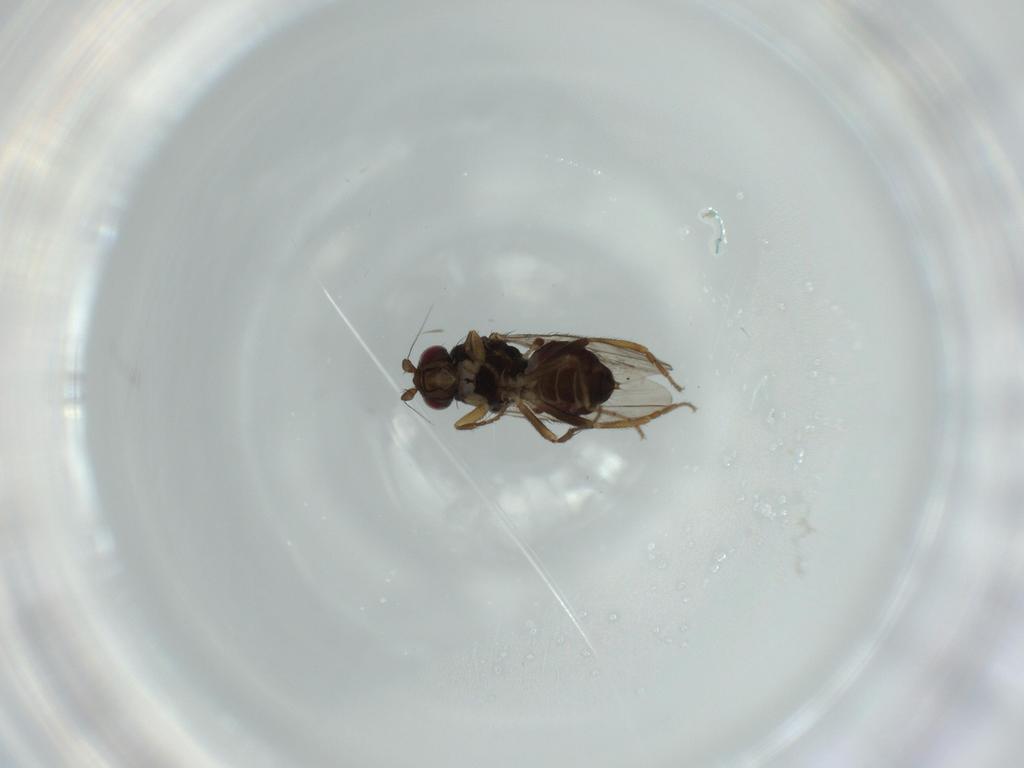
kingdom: Animalia
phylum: Arthropoda
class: Insecta
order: Diptera
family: Sphaeroceridae
